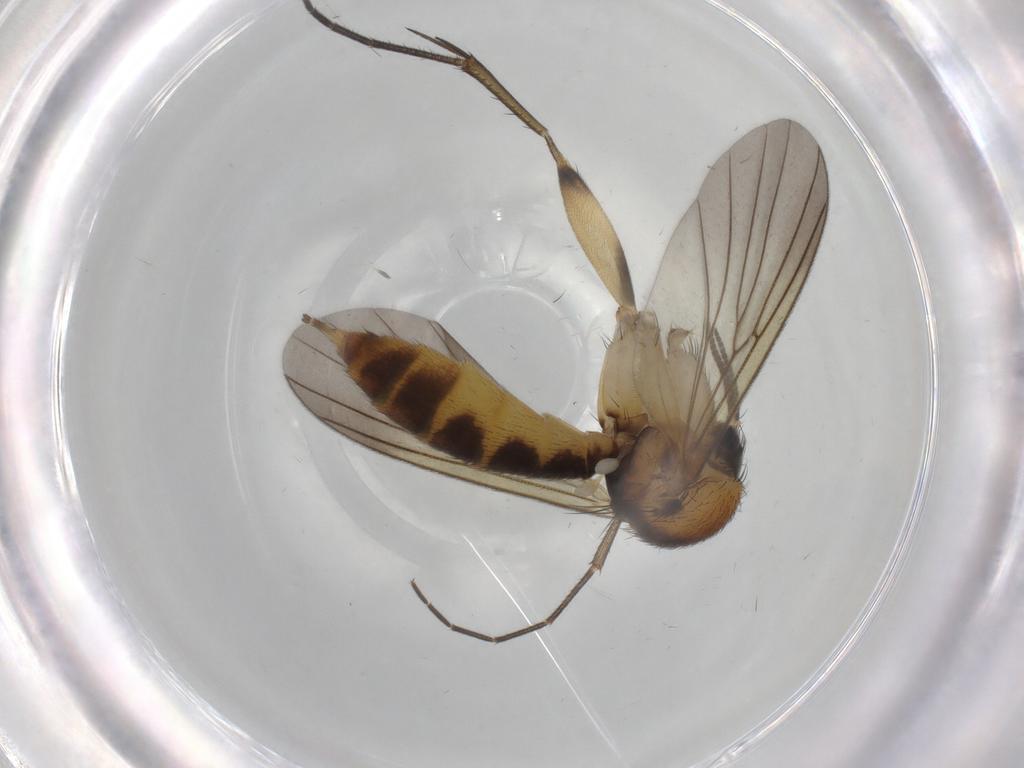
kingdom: Animalia
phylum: Arthropoda
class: Insecta
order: Diptera
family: Mycetophilidae
